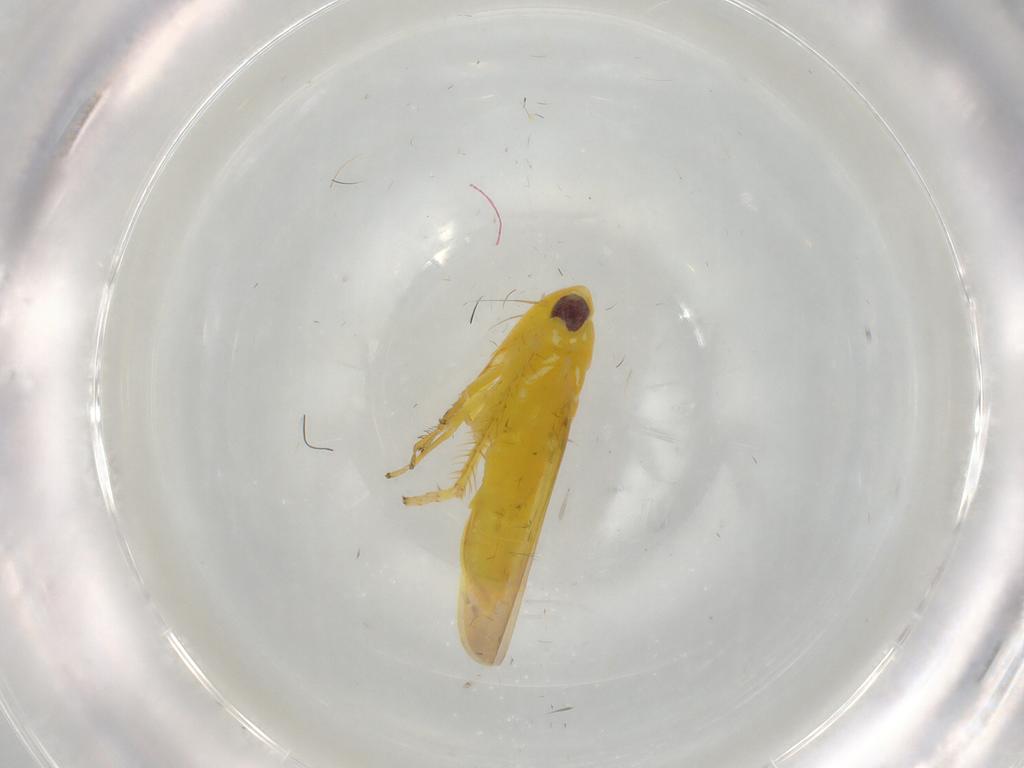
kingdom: Animalia
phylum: Arthropoda
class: Insecta
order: Hemiptera
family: Cicadellidae
